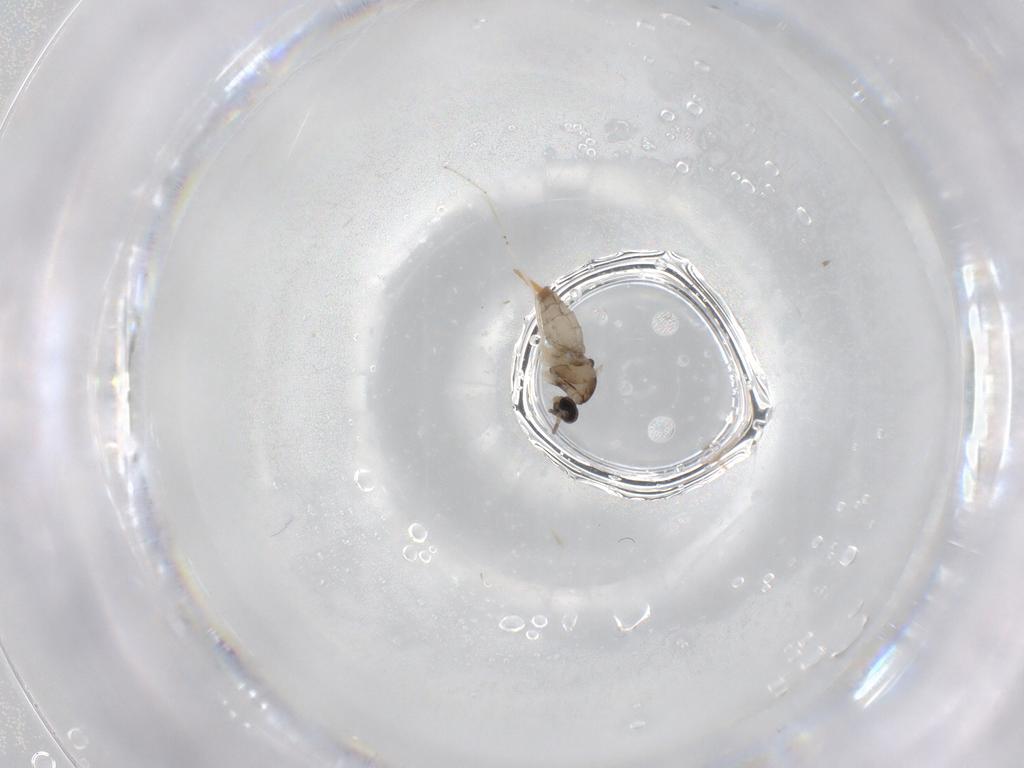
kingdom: Animalia
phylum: Arthropoda
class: Insecta
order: Diptera
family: Cecidomyiidae
